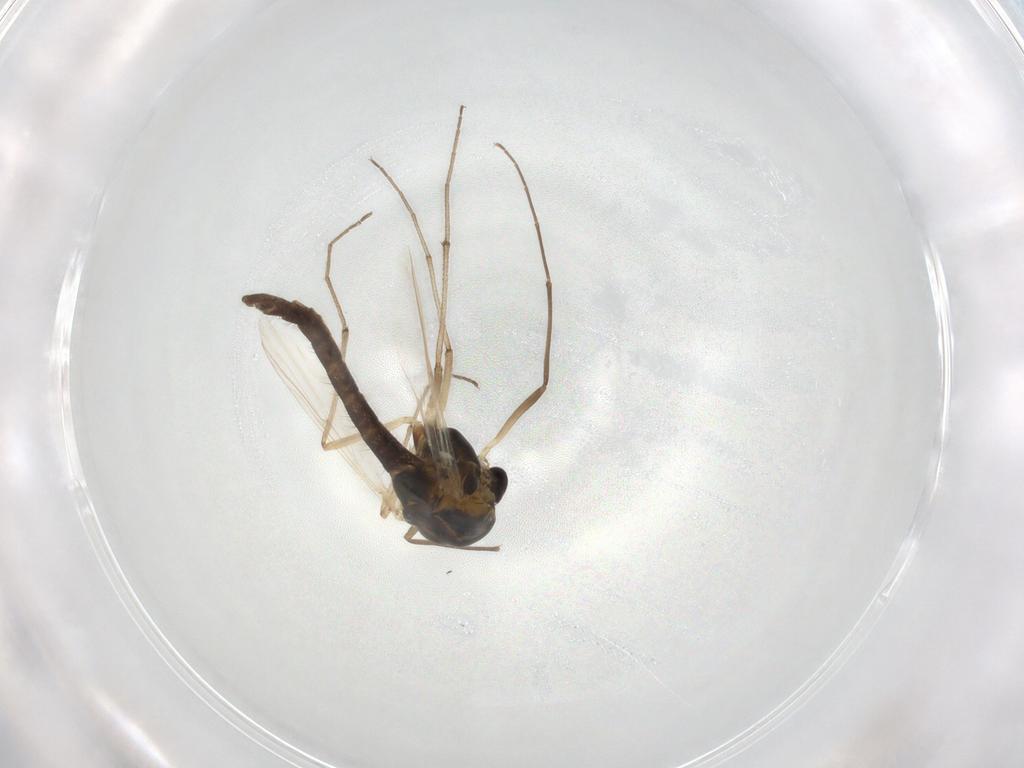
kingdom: Animalia
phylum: Arthropoda
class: Insecta
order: Diptera
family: Chironomidae
